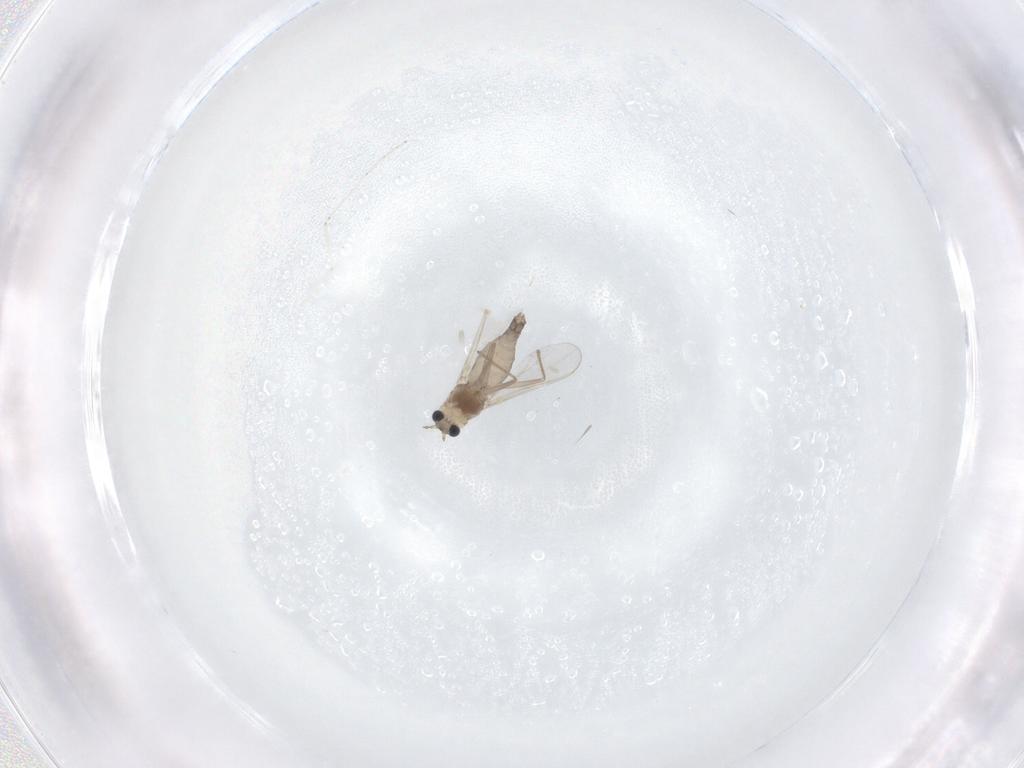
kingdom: Animalia
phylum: Arthropoda
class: Insecta
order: Diptera
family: Chironomidae
